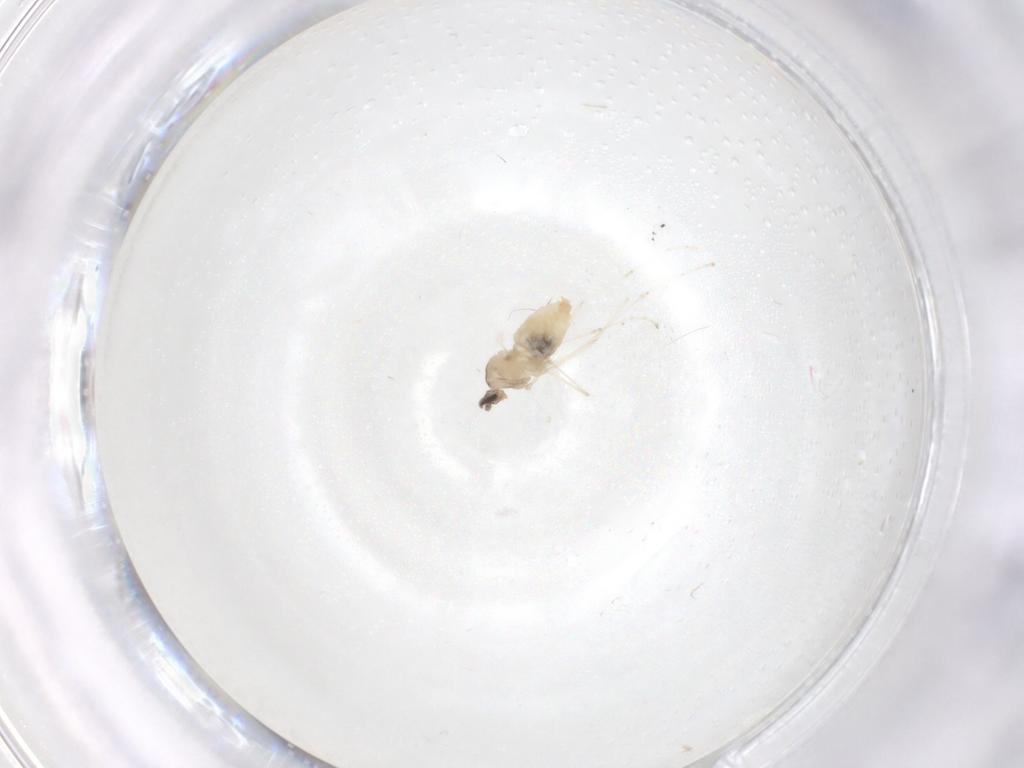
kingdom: Animalia
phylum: Arthropoda
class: Insecta
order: Diptera
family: Cecidomyiidae
